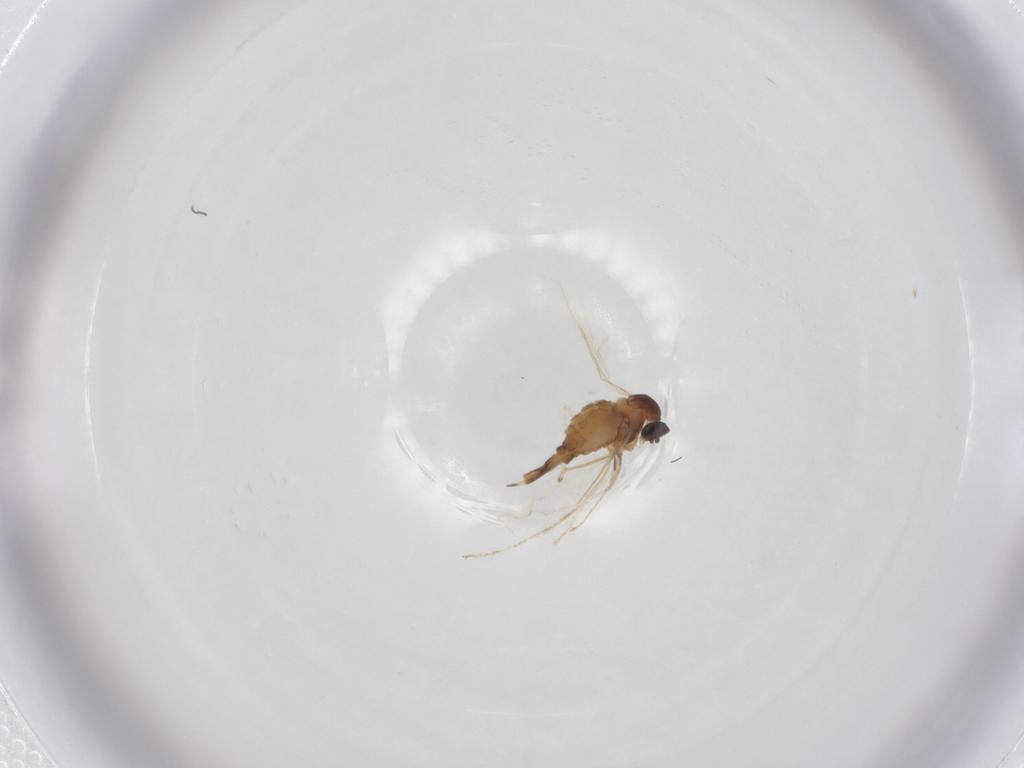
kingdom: Animalia
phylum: Arthropoda
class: Insecta
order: Diptera
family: Cecidomyiidae
